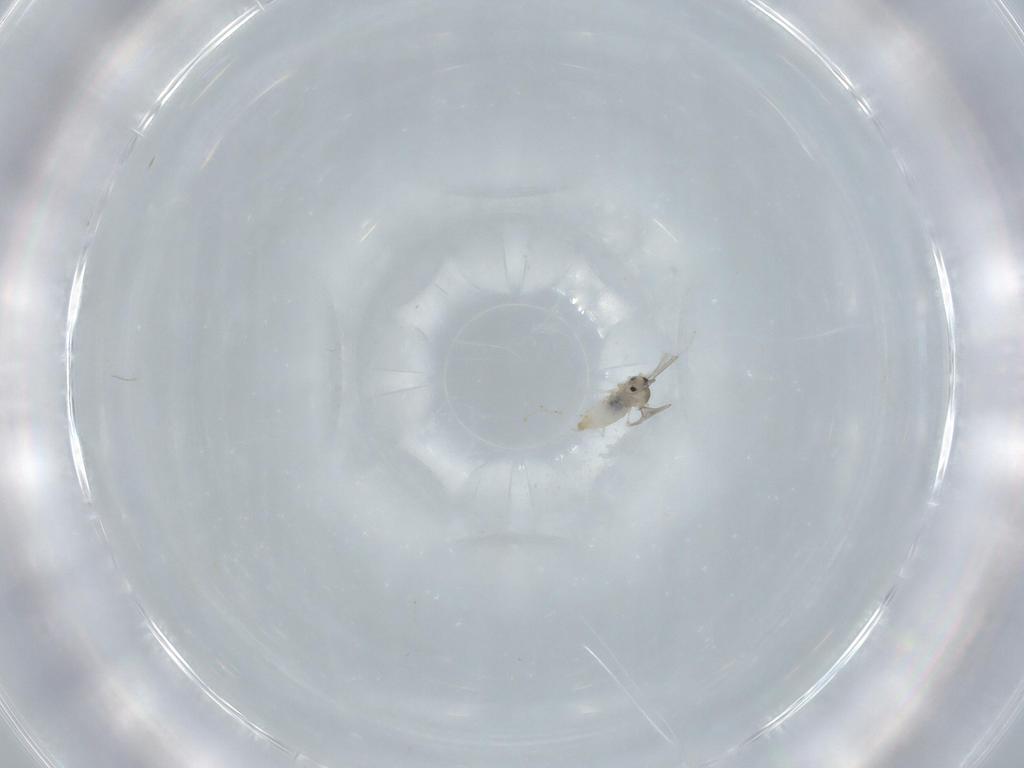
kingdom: Animalia
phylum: Arthropoda
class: Insecta
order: Diptera
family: Cecidomyiidae
